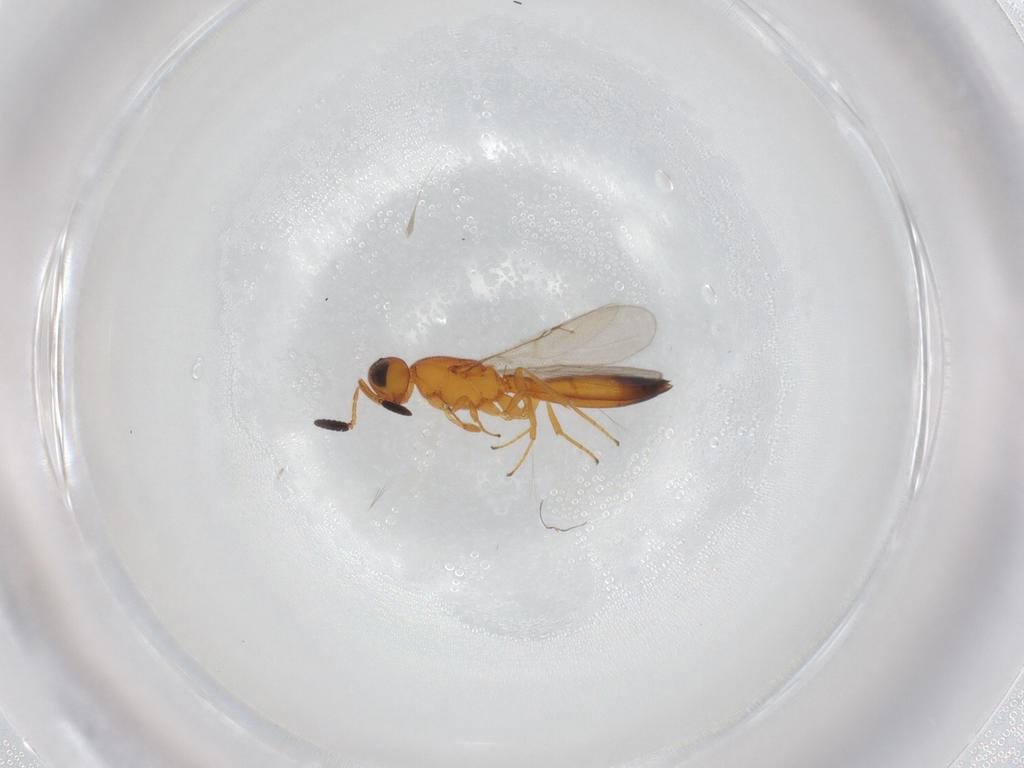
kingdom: Animalia
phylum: Arthropoda
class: Insecta
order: Hymenoptera
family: Scelionidae
